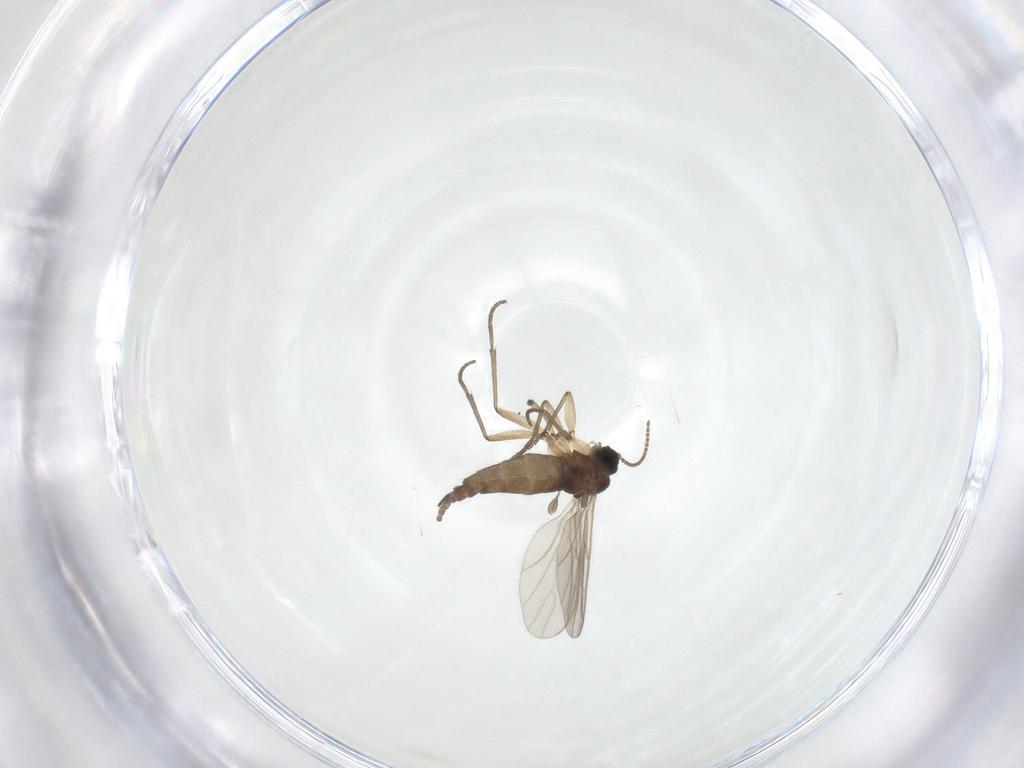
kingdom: Animalia
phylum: Arthropoda
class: Insecta
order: Diptera
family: Sciaridae
